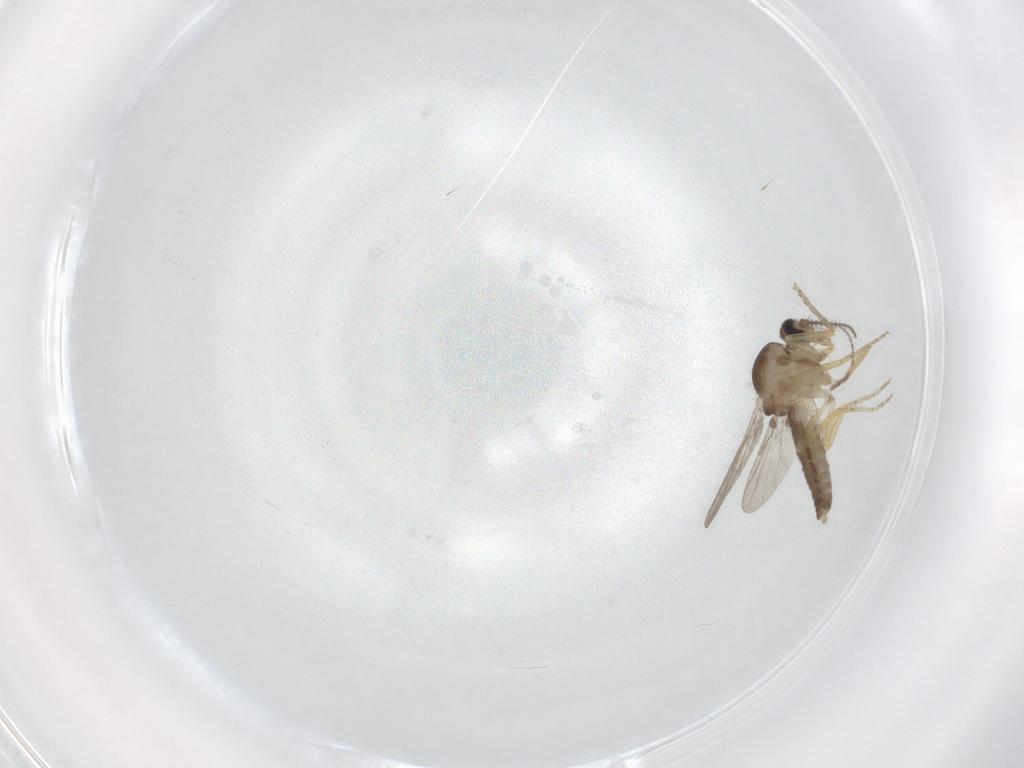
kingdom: Animalia
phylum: Arthropoda
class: Insecta
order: Diptera
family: Ceratopogonidae
